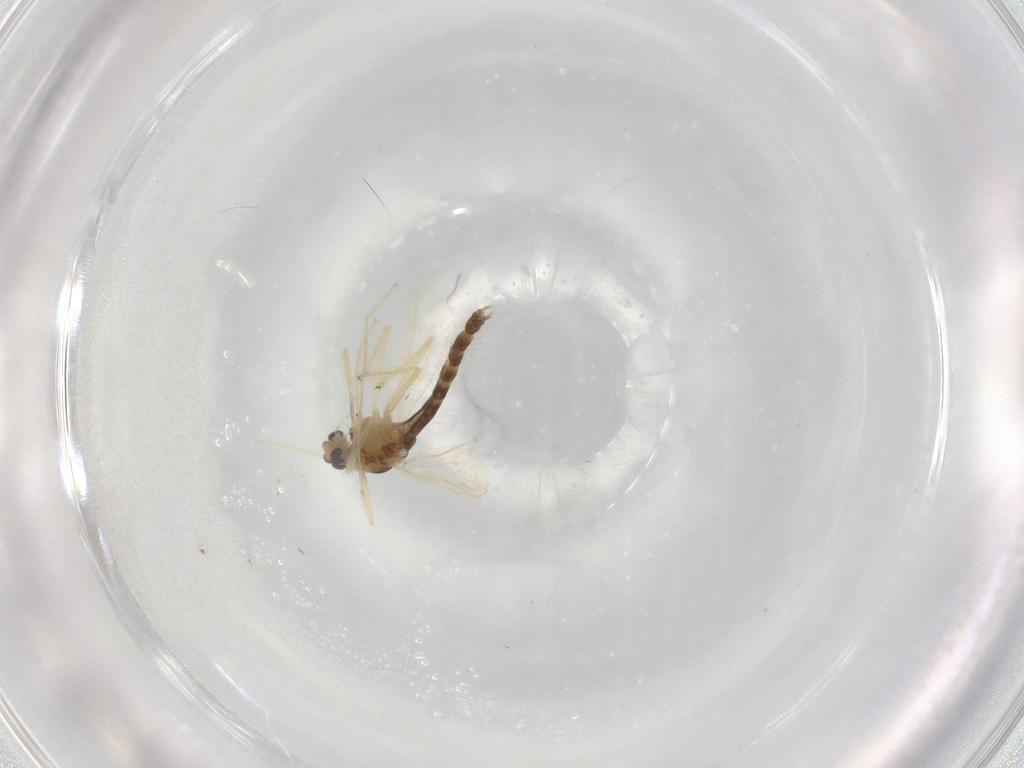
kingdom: Animalia
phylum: Arthropoda
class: Insecta
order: Diptera
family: Chironomidae
